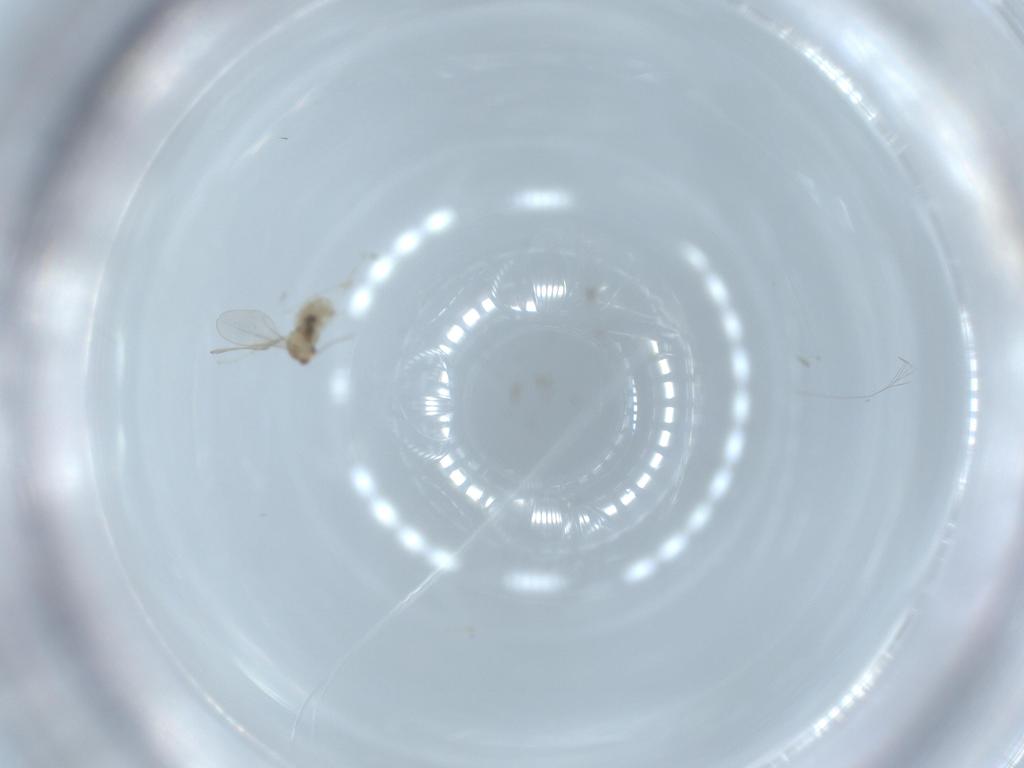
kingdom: Animalia
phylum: Arthropoda
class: Insecta
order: Diptera
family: Cecidomyiidae
